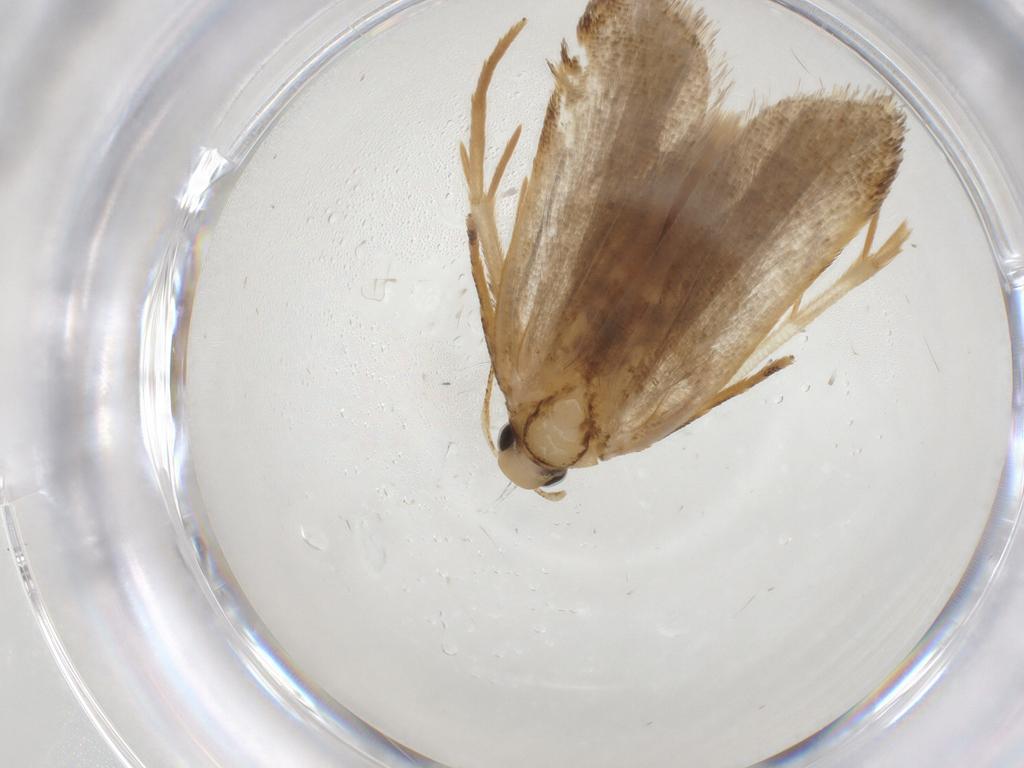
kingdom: Animalia
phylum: Arthropoda
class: Insecta
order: Lepidoptera
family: Gelechiidae
